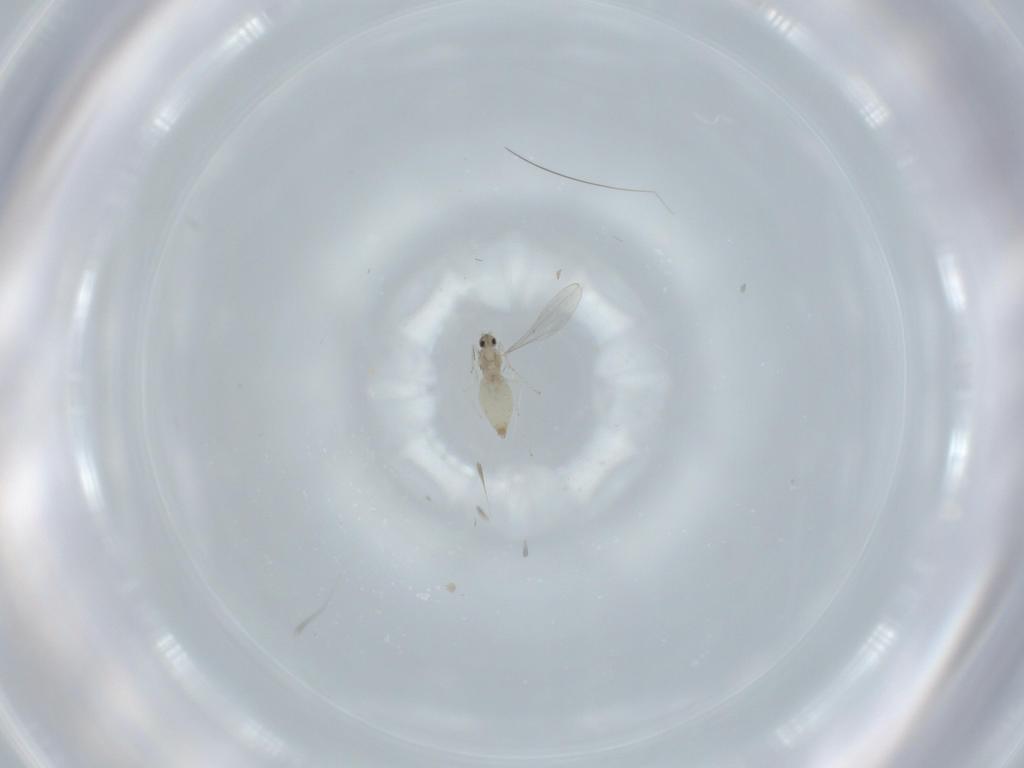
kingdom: Animalia
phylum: Arthropoda
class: Insecta
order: Diptera
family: Cecidomyiidae
